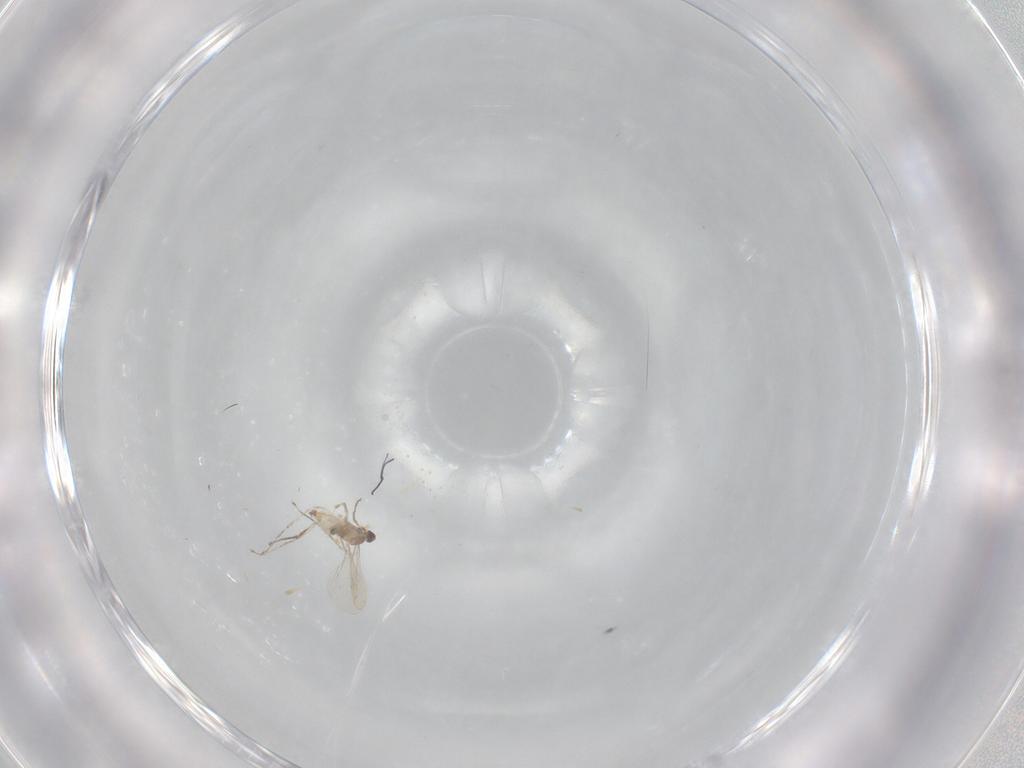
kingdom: Animalia
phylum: Arthropoda
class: Insecta
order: Diptera
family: Cecidomyiidae
